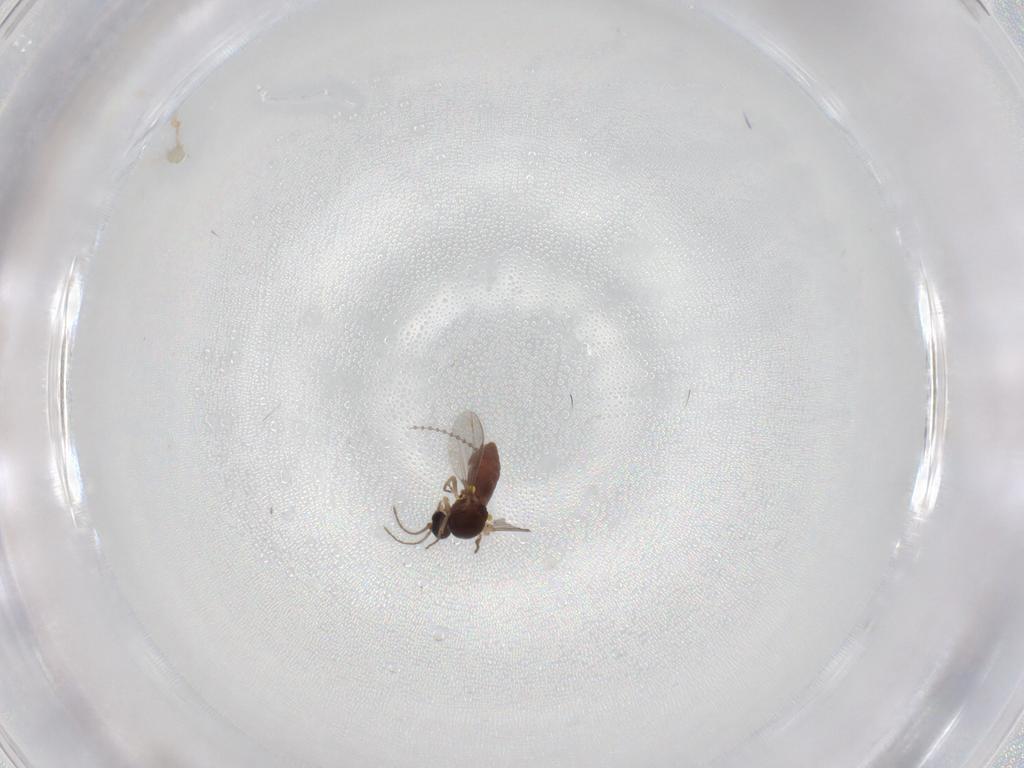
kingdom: Animalia
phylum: Arthropoda
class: Insecta
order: Diptera
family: Ceratopogonidae
